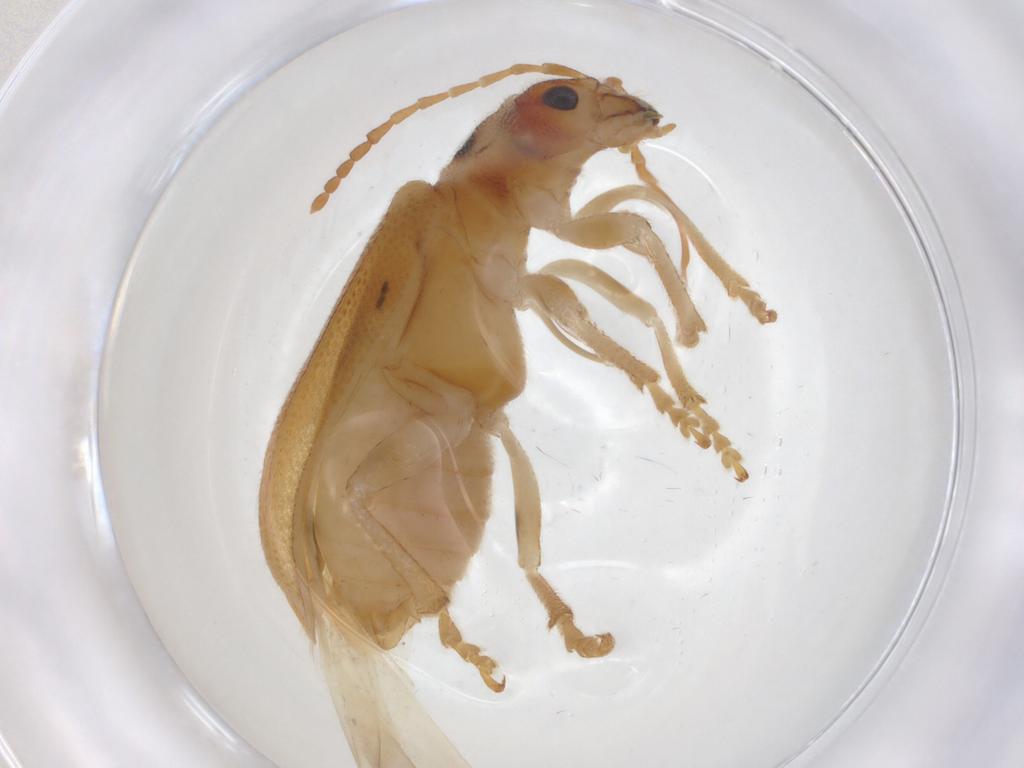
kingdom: Animalia
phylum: Arthropoda
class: Insecta
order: Coleoptera
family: Chrysomelidae
